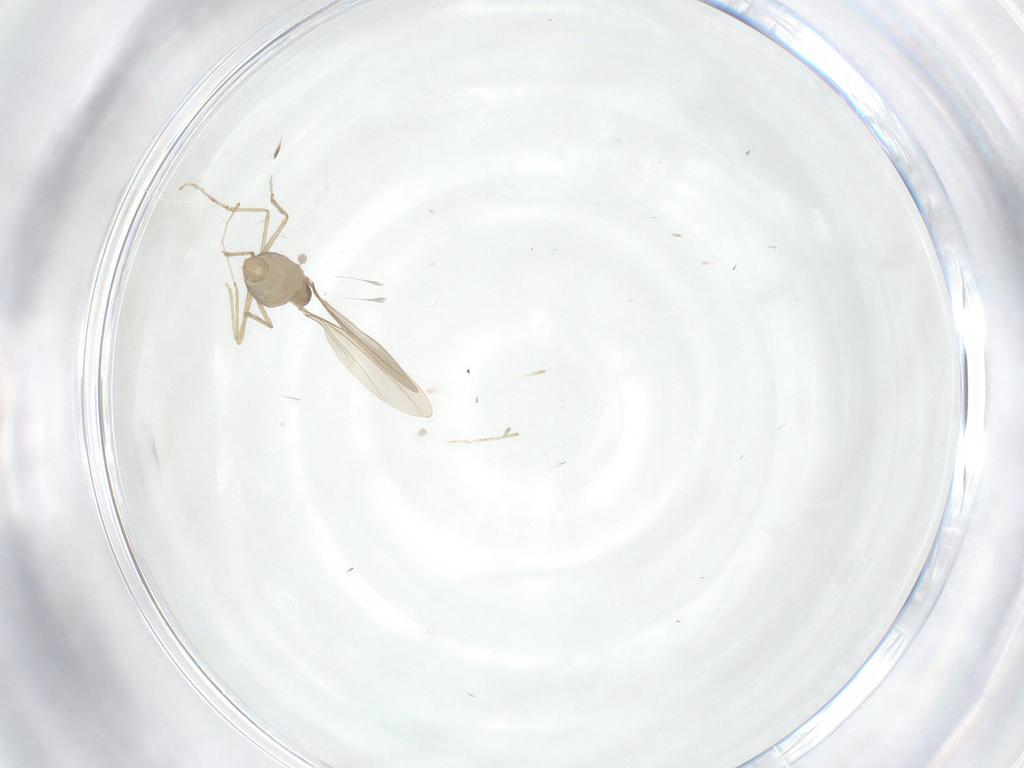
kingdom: Animalia
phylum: Arthropoda
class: Insecta
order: Diptera
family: Cecidomyiidae
